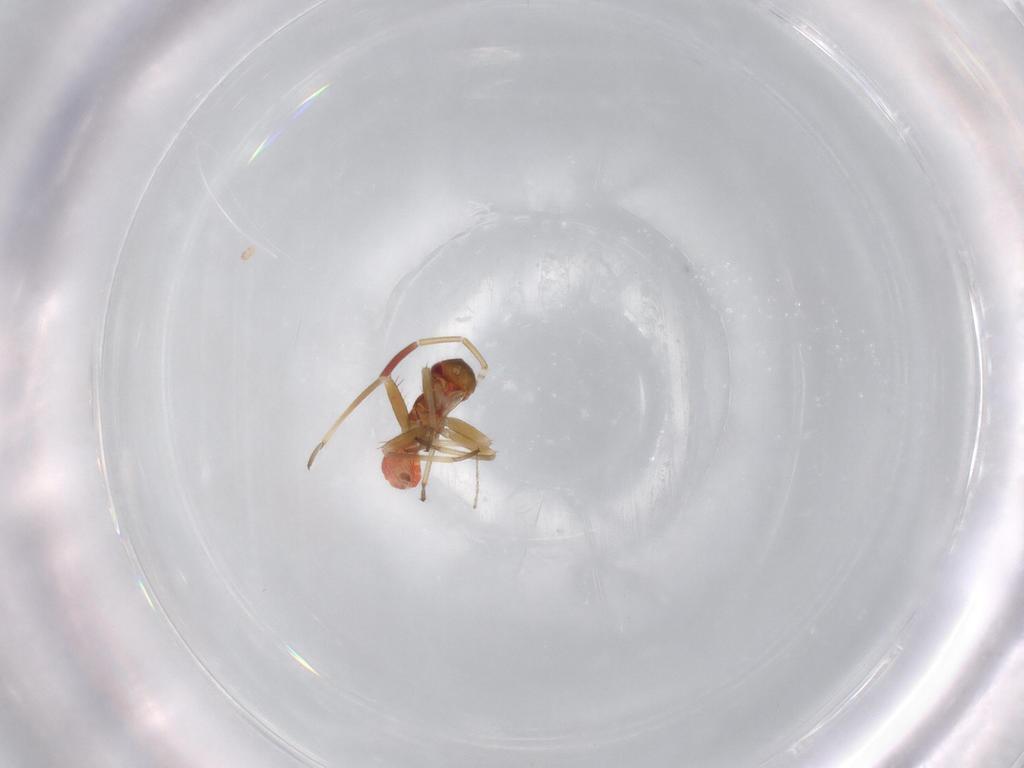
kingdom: Animalia
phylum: Arthropoda
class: Insecta
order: Hemiptera
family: Miridae
